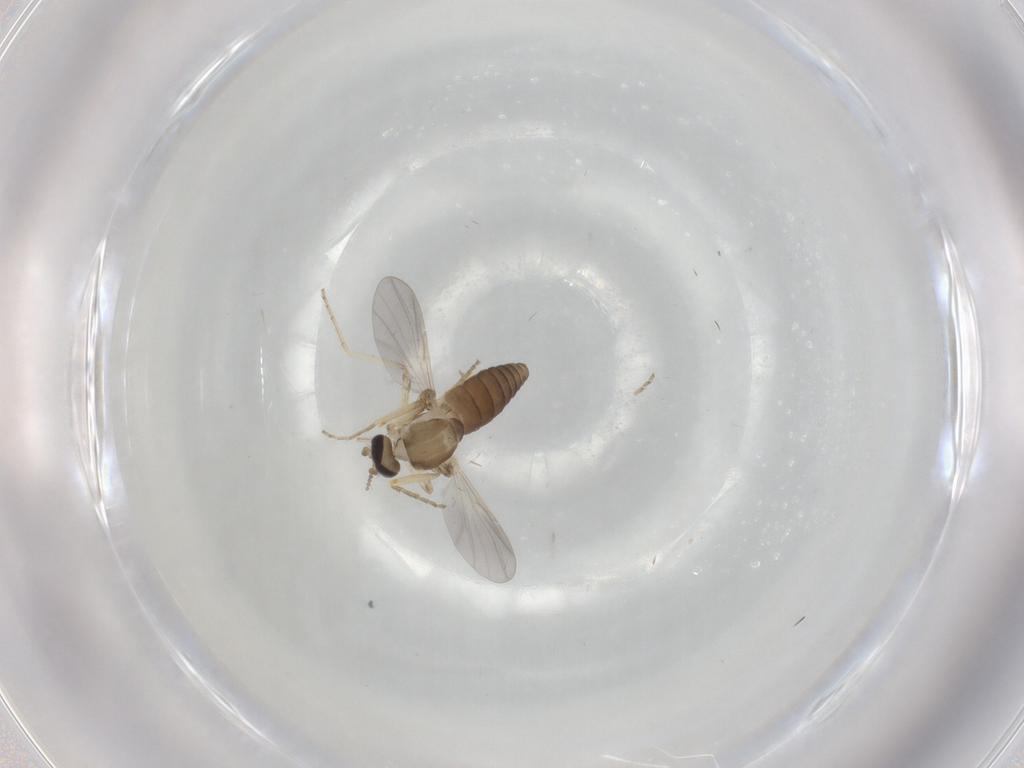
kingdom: Animalia
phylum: Arthropoda
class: Insecta
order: Diptera
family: Ceratopogonidae
